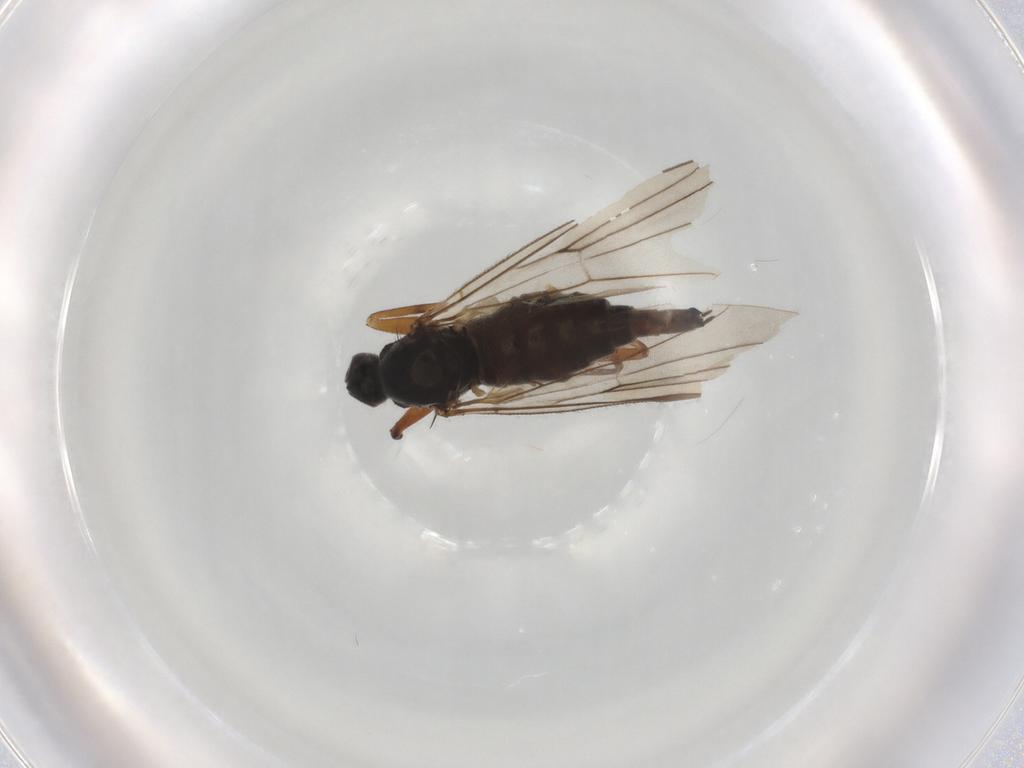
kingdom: Animalia
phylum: Arthropoda
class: Insecta
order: Diptera
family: Hybotidae
